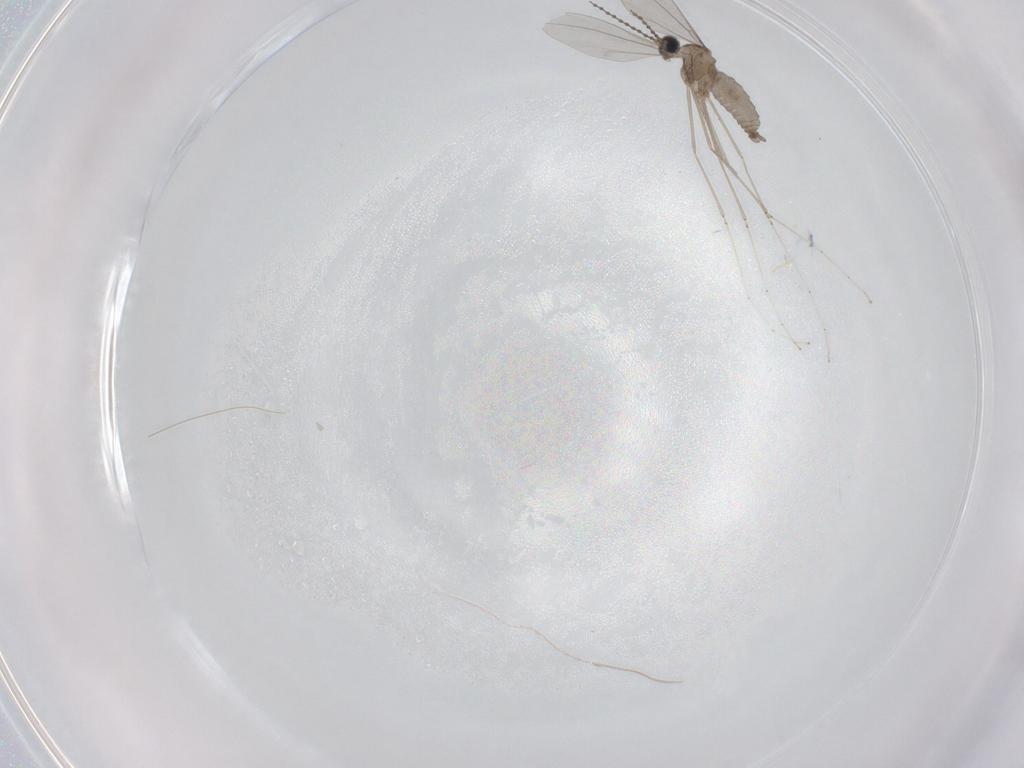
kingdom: Animalia
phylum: Arthropoda
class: Insecta
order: Diptera
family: Cecidomyiidae
